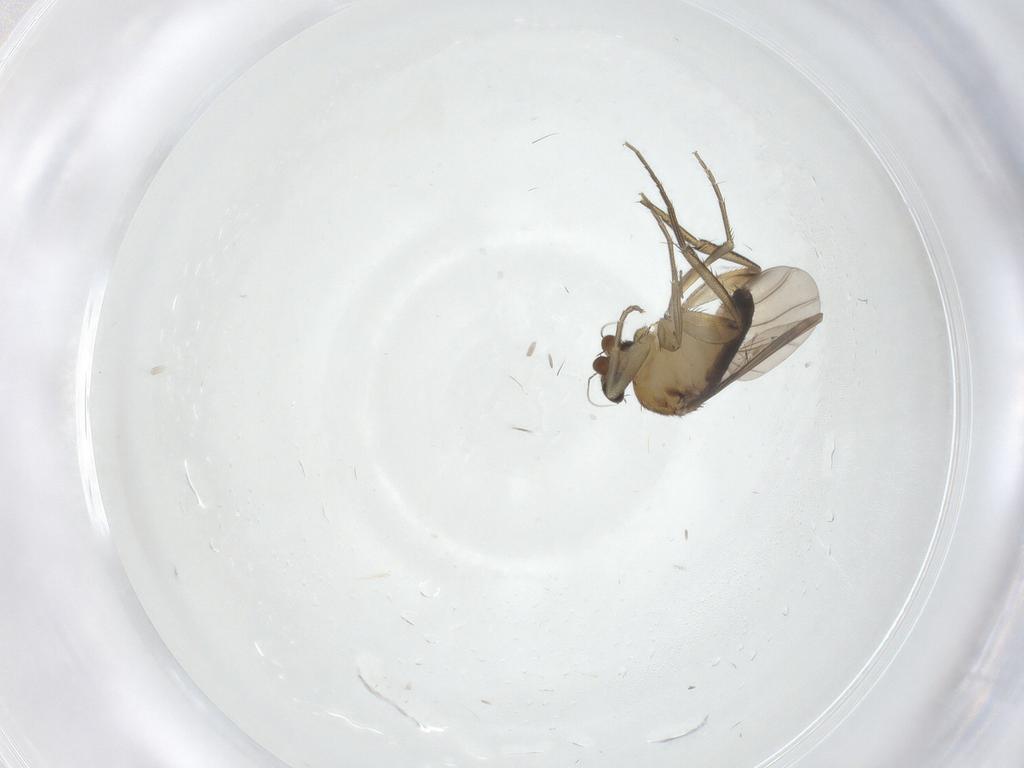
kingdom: Animalia
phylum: Arthropoda
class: Insecta
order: Diptera
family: Phoridae
